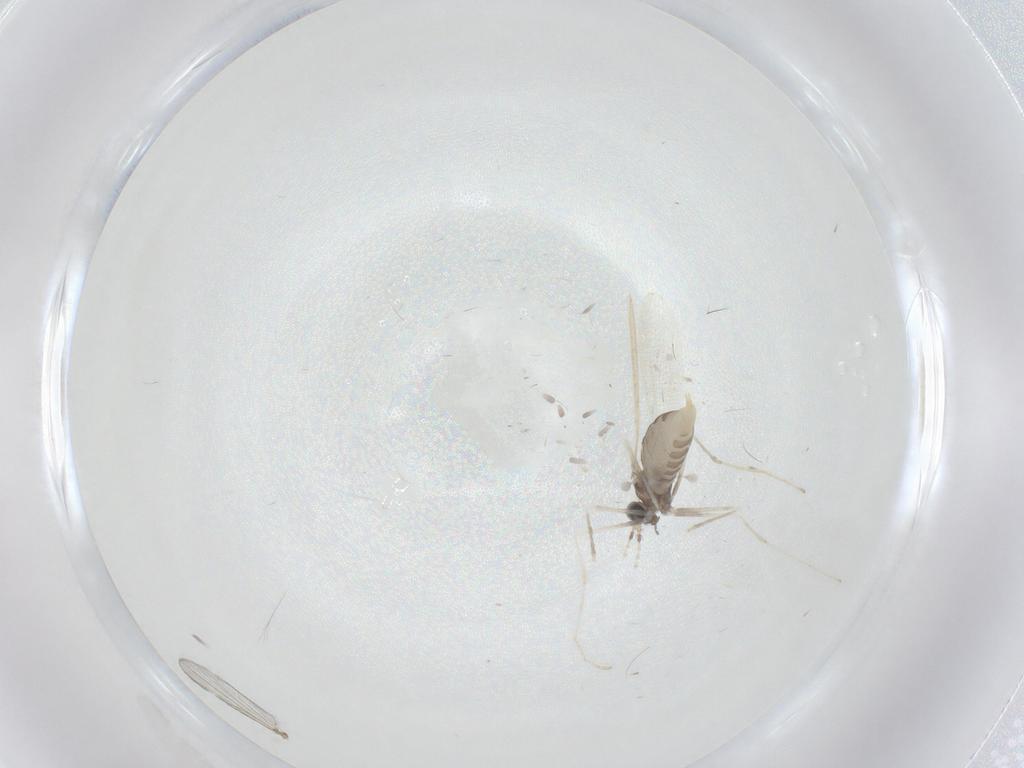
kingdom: Animalia
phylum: Arthropoda
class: Insecta
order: Diptera
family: Cecidomyiidae
